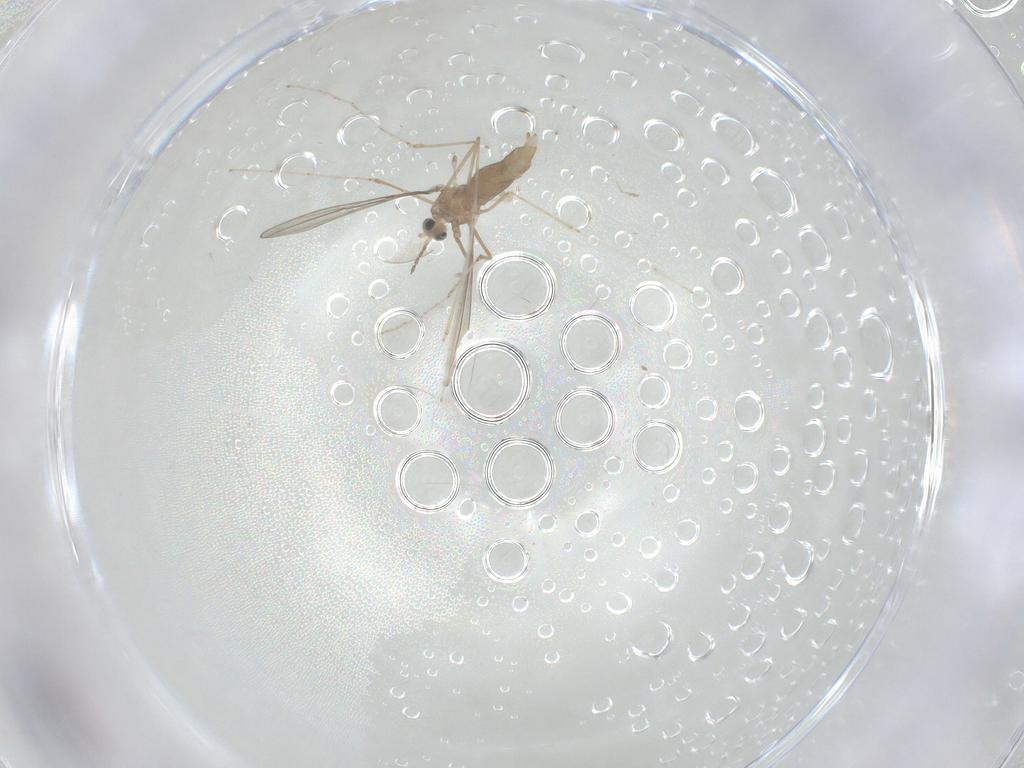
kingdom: Animalia
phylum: Arthropoda
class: Insecta
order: Diptera
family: Cecidomyiidae
